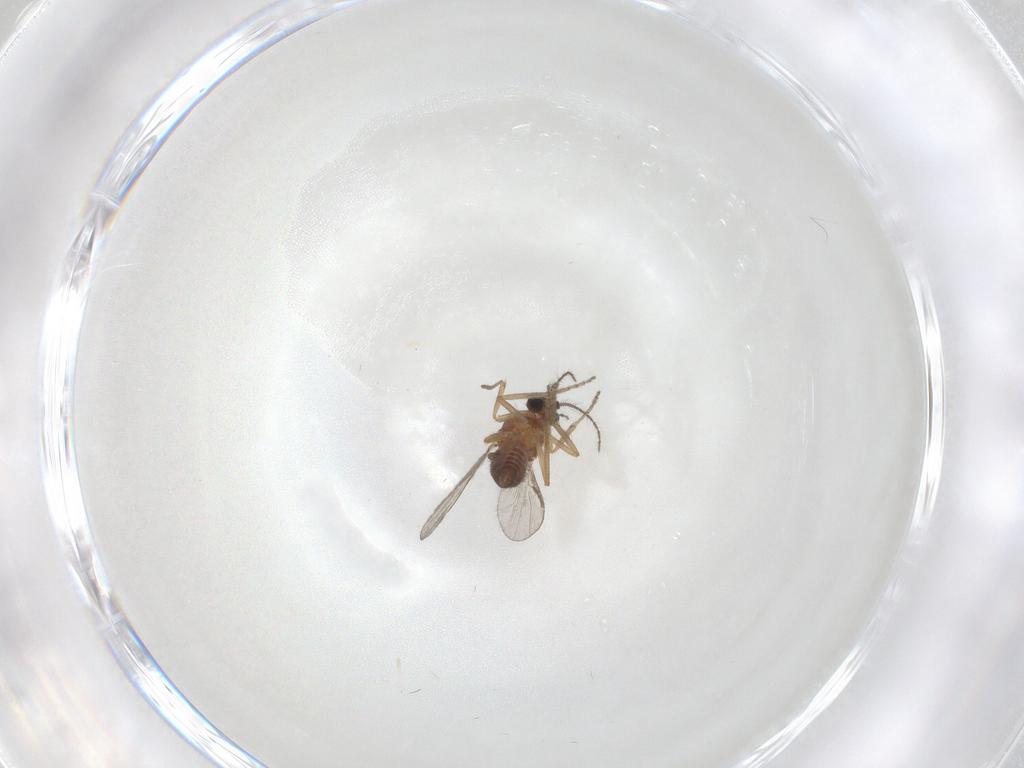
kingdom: Animalia
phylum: Arthropoda
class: Insecta
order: Diptera
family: Ceratopogonidae
